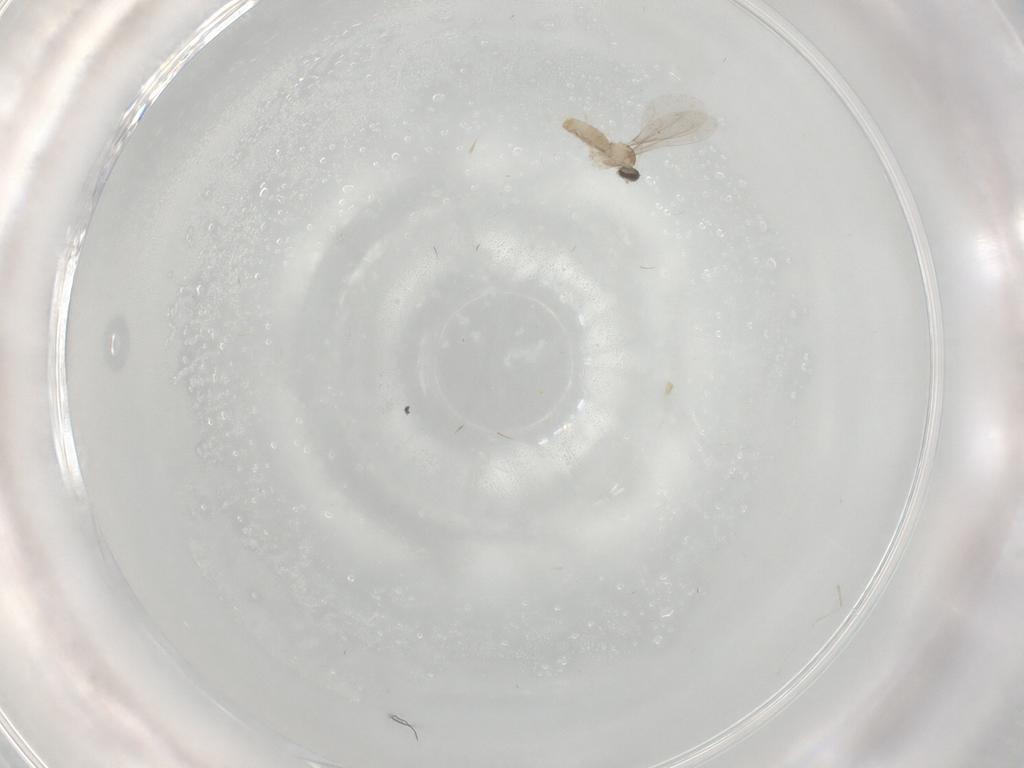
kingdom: Animalia
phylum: Arthropoda
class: Insecta
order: Diptera
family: Cecidomyiidae
